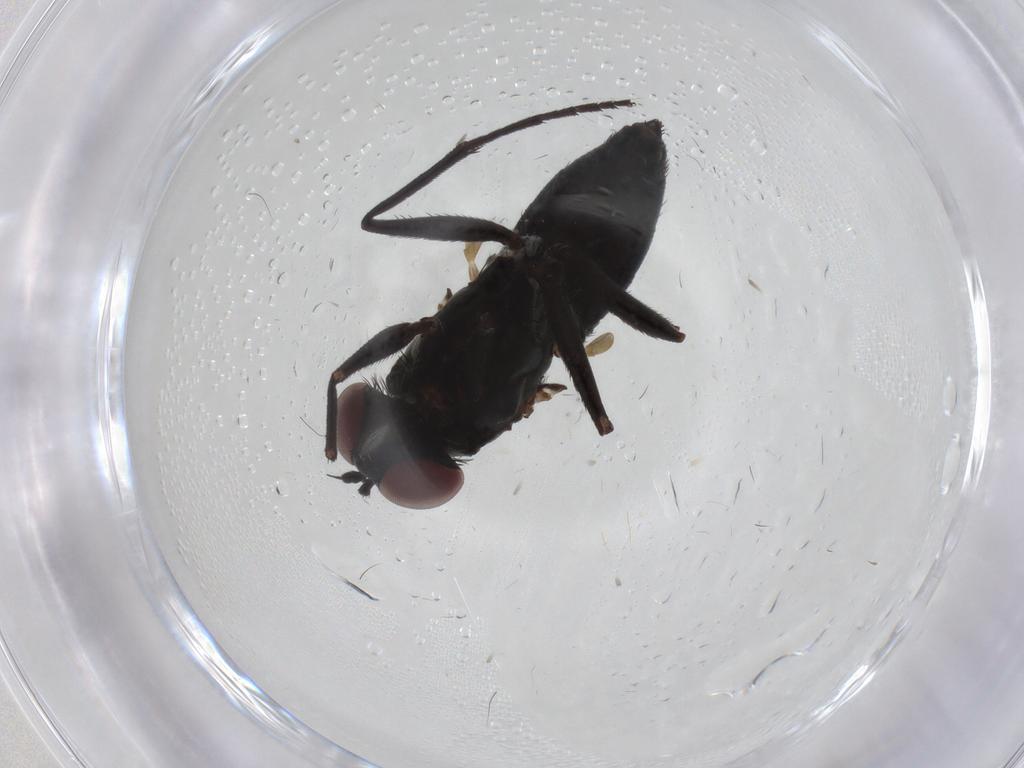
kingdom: Animalia
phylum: Arthropoda
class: Insecta
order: Diptera
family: Dolichopodidae
